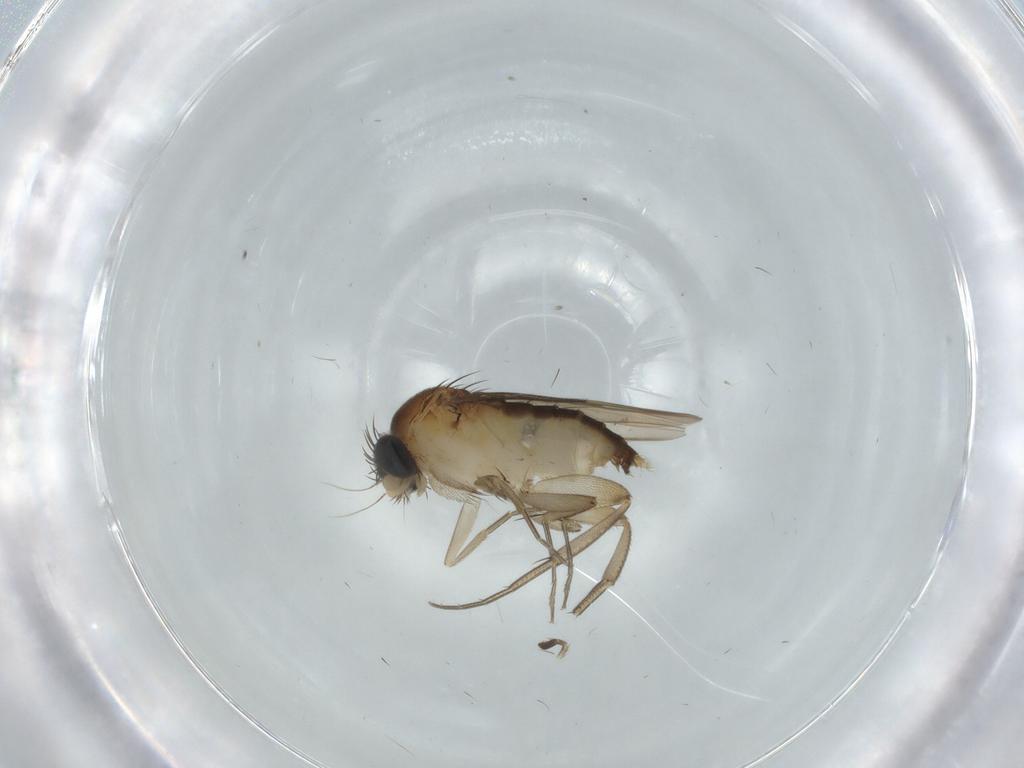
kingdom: Animalia
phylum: Arthropoda
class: Insecta
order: Diptera
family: Phoridae
